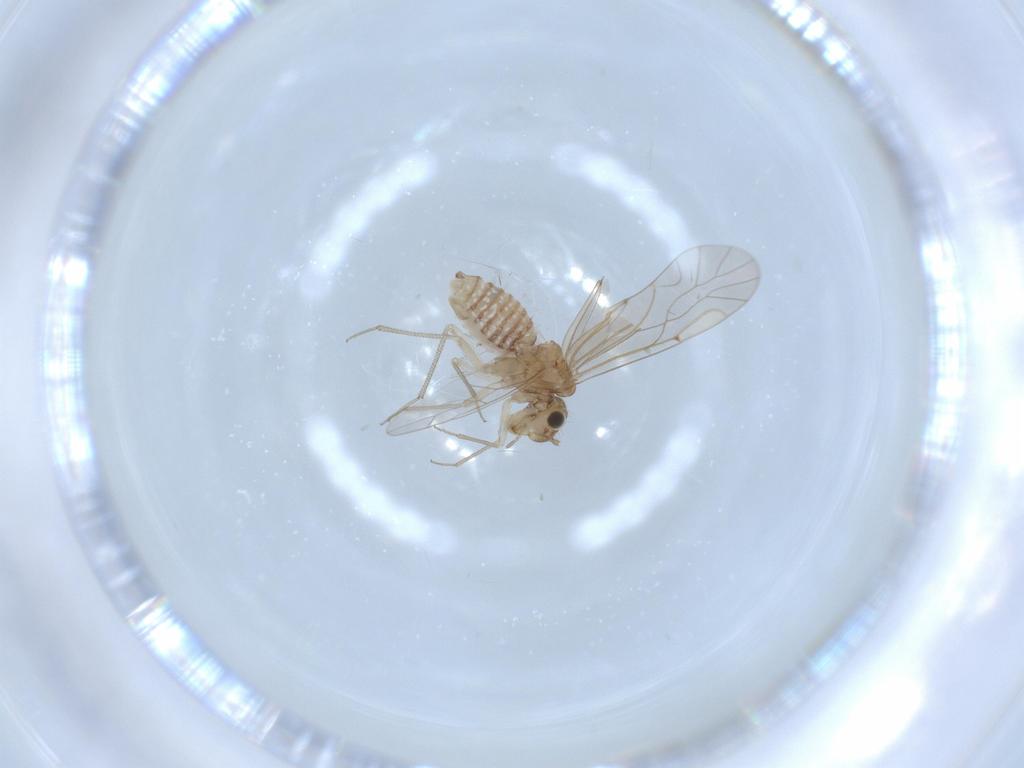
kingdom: Animalia
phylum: Arthropoda
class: Insecta
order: Psocodea
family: Lachesillidae
